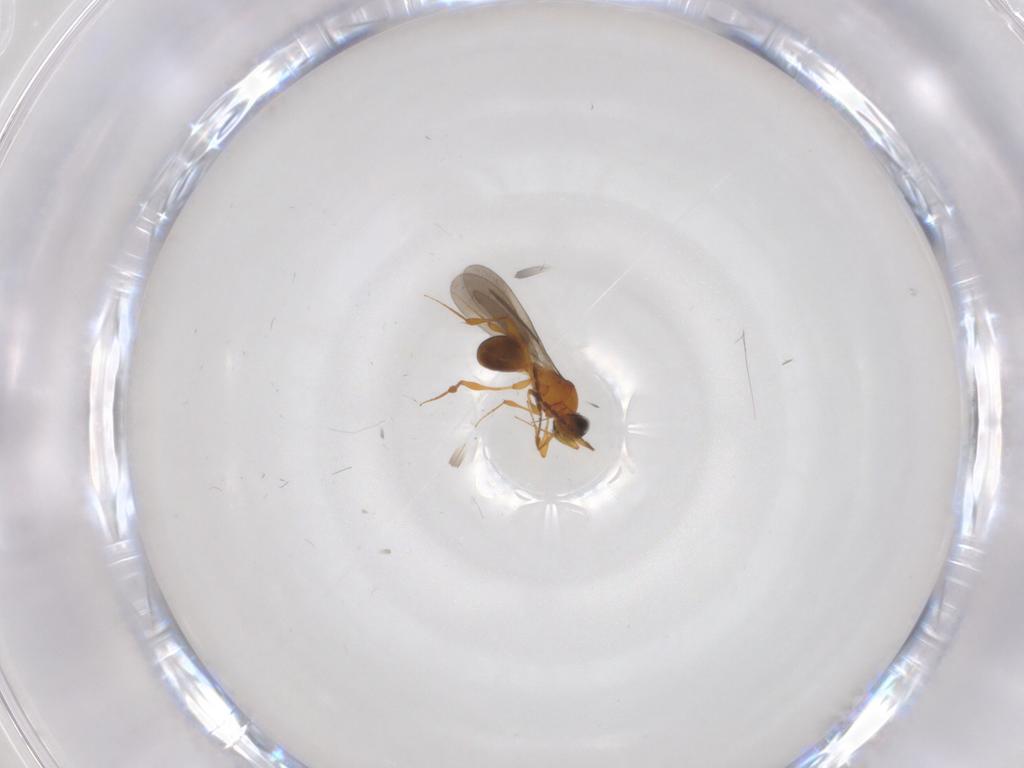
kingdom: Animalia
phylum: Arthropoda
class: Insecta
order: Hymenoptera
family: Platygastridae
